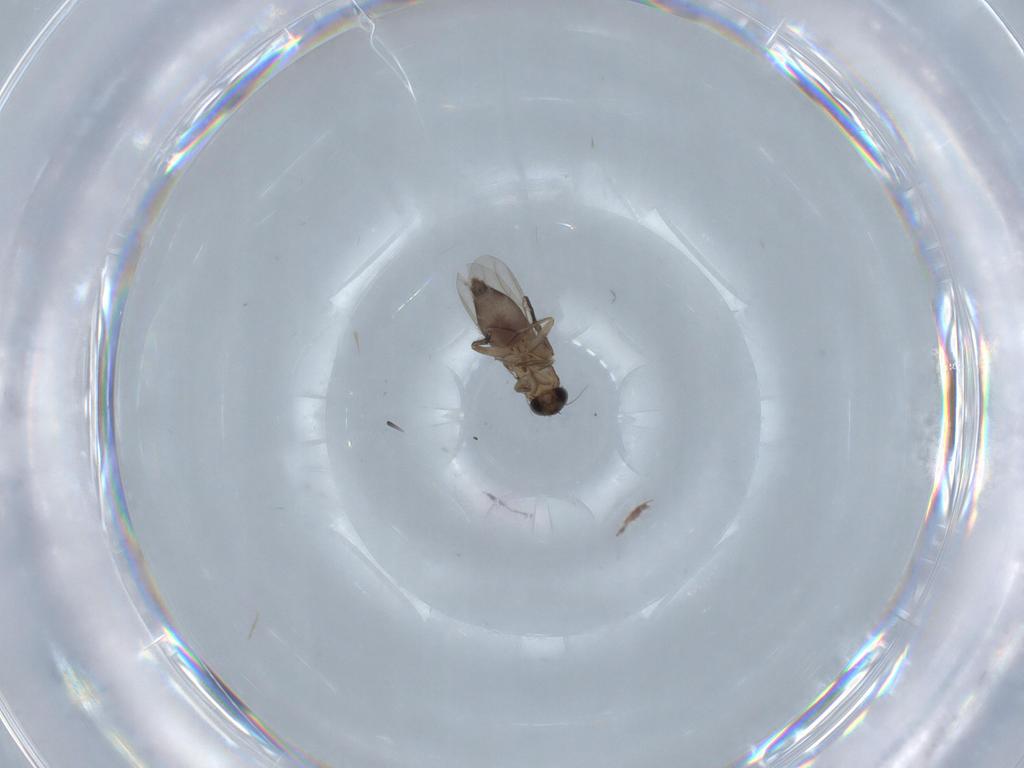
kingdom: Animalia
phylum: Arthropoda
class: Insecta
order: Diptera
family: Phoridae
